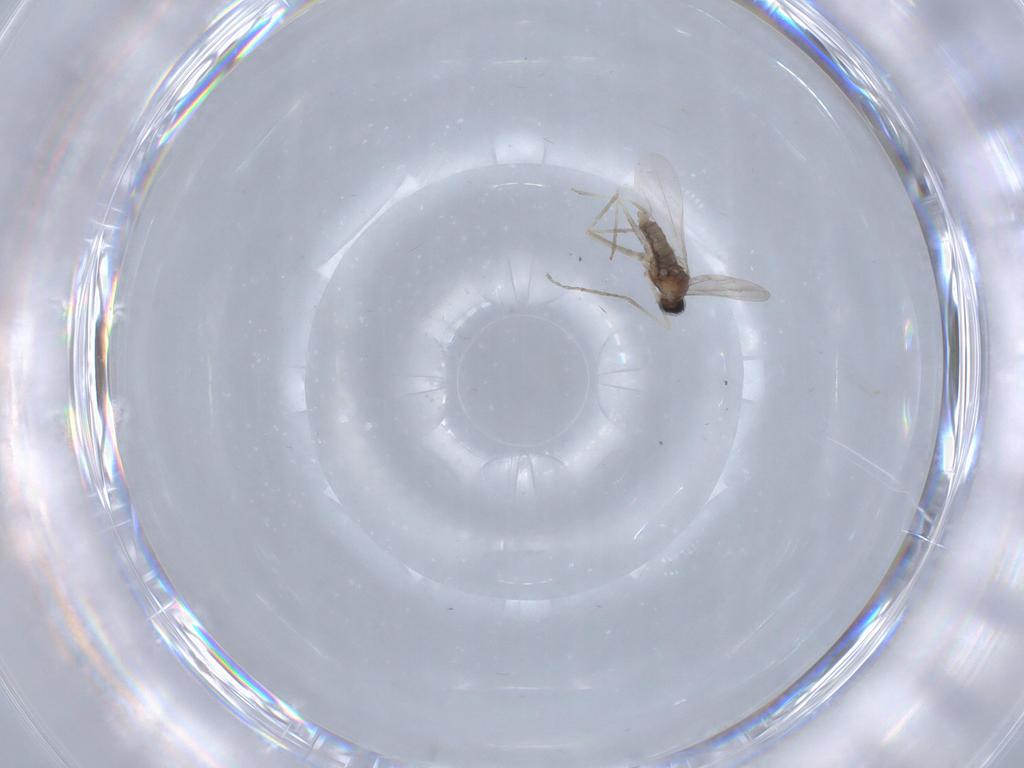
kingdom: Animalia
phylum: Arthropoda
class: Insecta
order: Diptera
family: Cecidomyiidae
